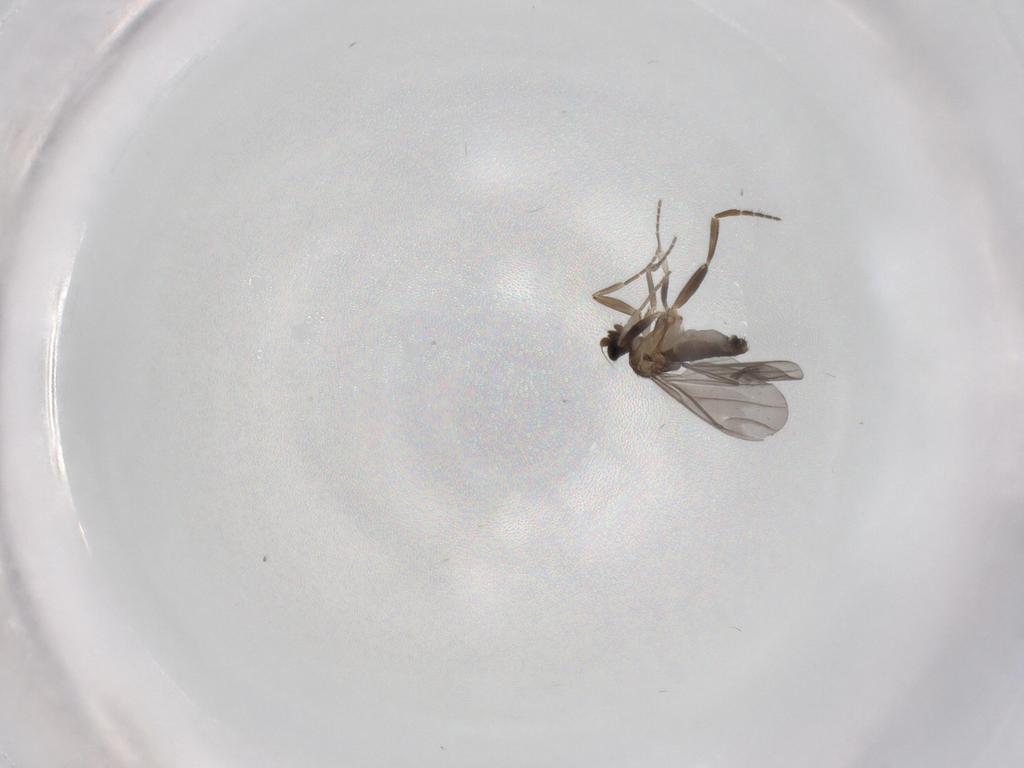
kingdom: Animalia
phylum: Arthropoda
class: Insecta
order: Diptera
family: Phoridae
